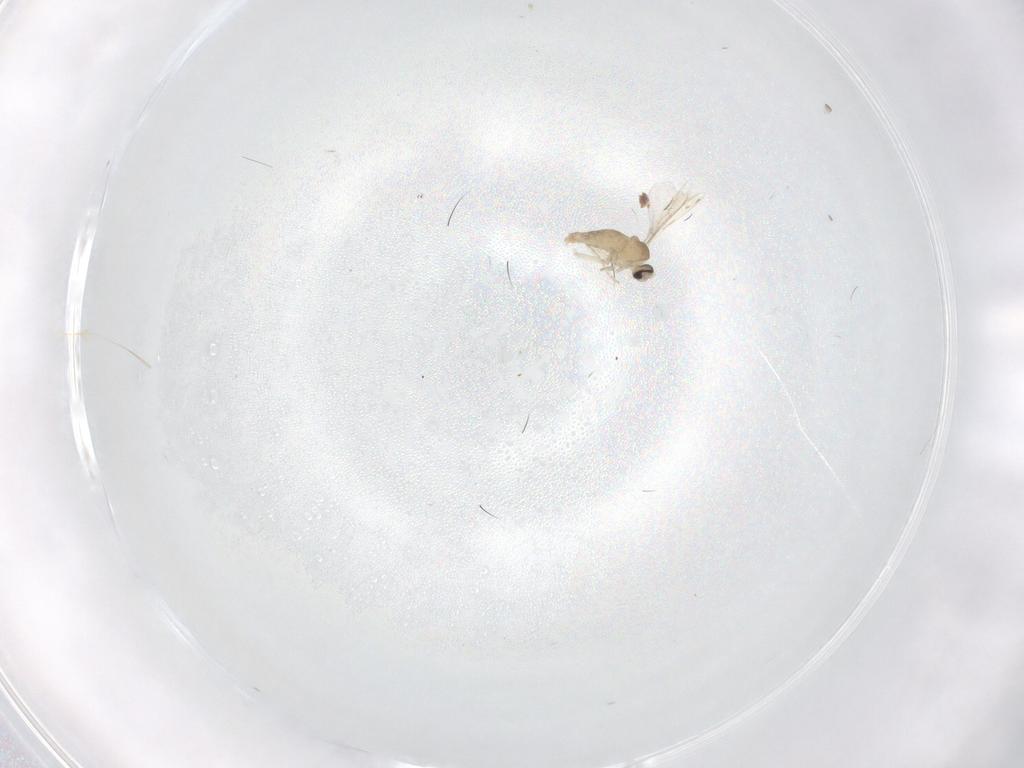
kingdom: Animalia
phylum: Arthropoda
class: Insecta
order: Diptera
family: Cecidomyiidae
